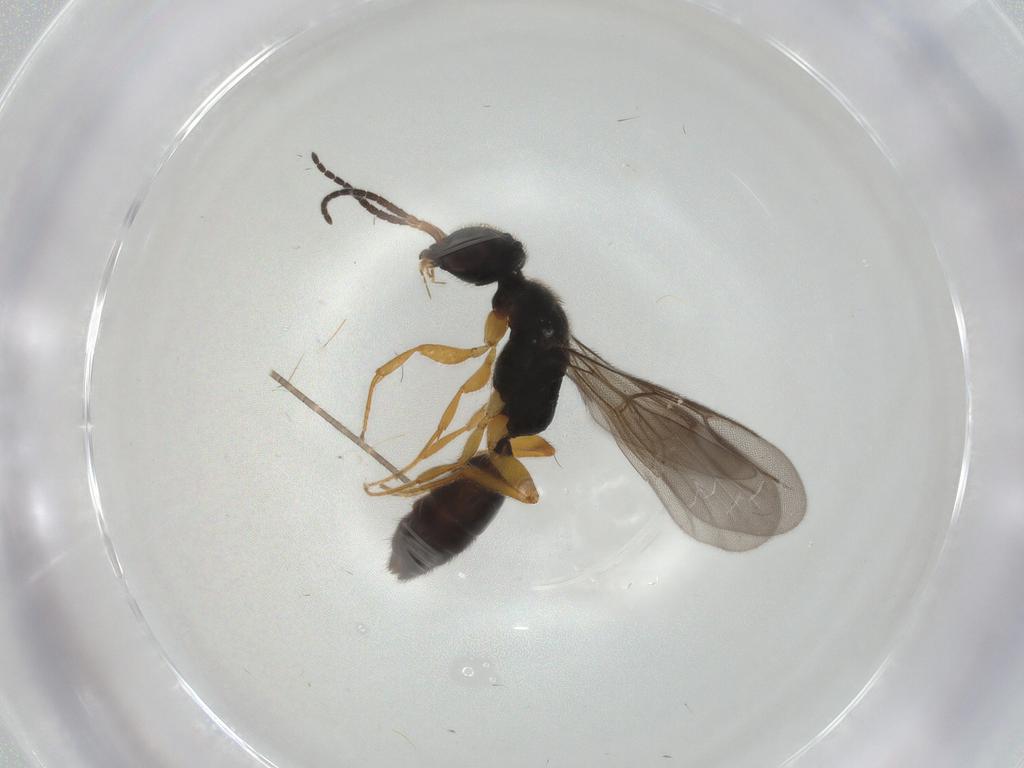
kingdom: Animalia
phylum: Arthropoda
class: Insecta
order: Hymenoptera
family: Bethylidae
